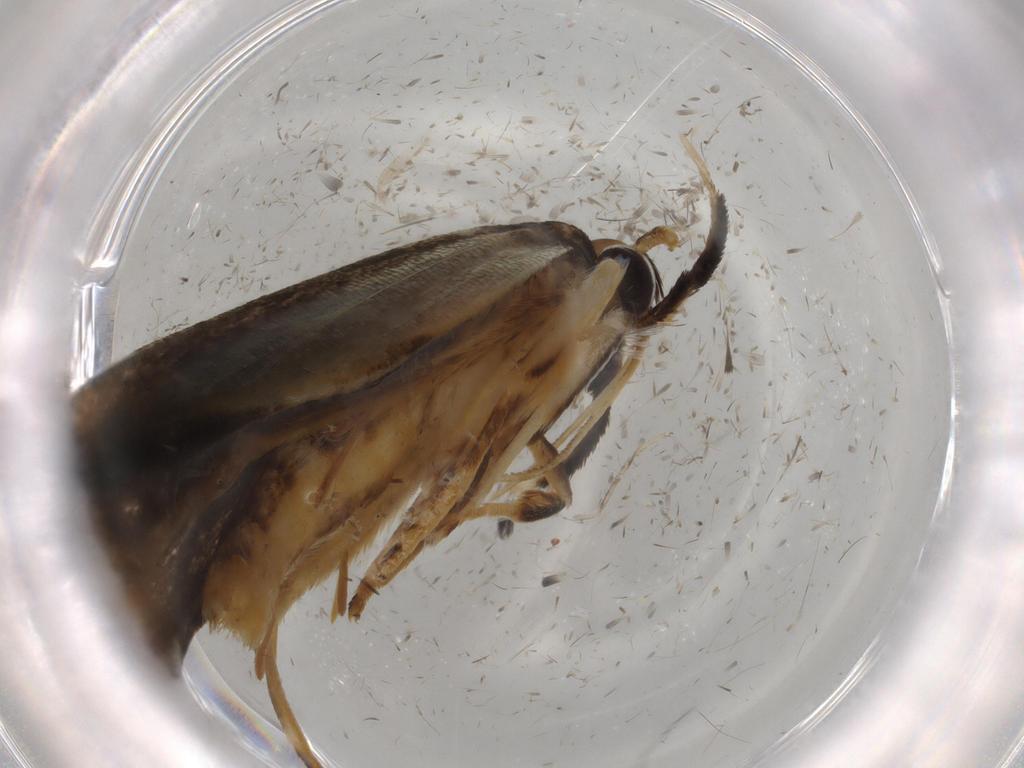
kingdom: Animalia
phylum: Arthropoda
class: Insecta
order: Lepidoptera
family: Tineidae
